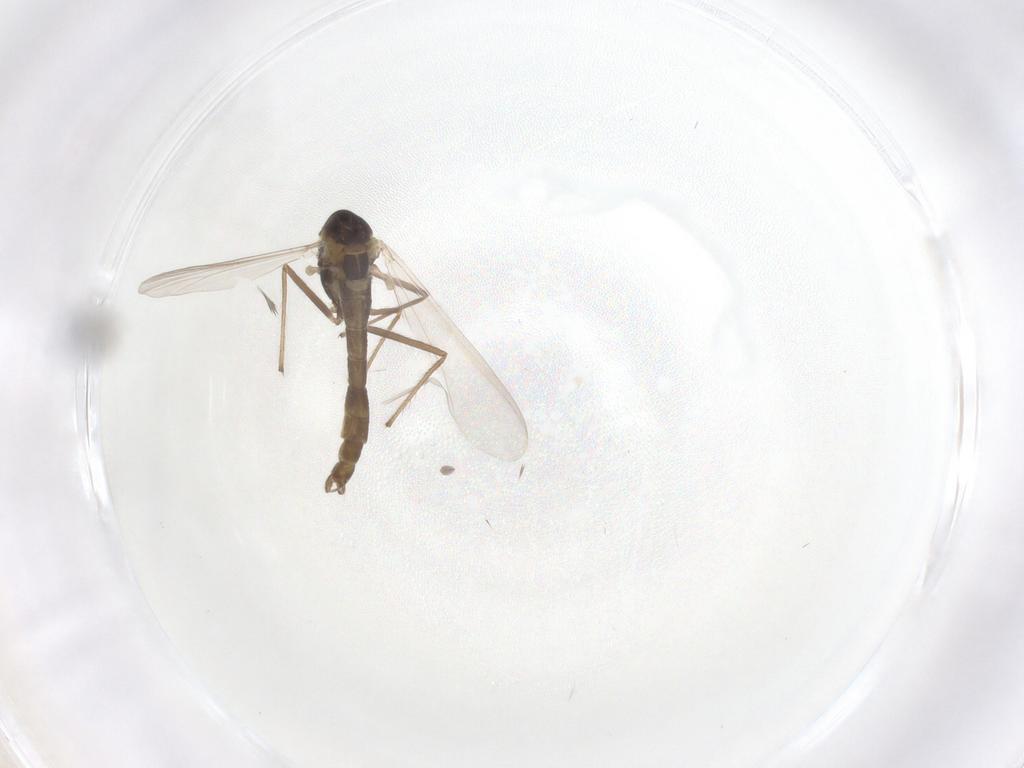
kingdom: Animalia
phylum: Arthropoda
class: Insecta
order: Diptera
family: Chironomidae
